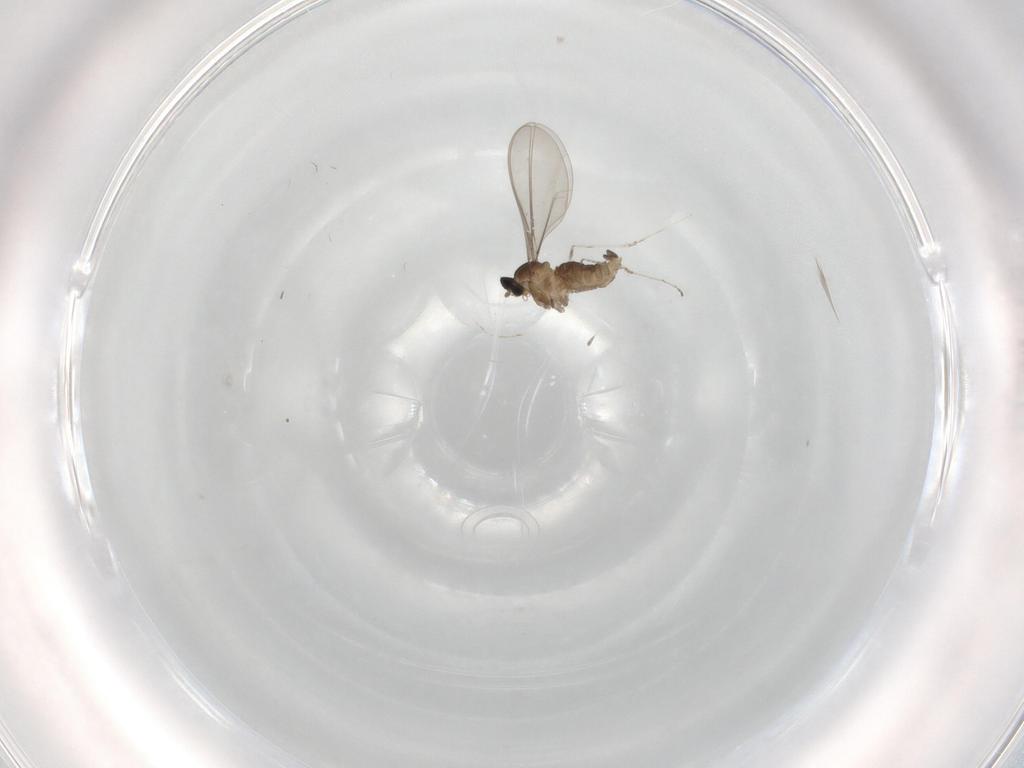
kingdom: Animalia
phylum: Arthropoda
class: Insecta
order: Diptera
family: Cecidomyiidae
